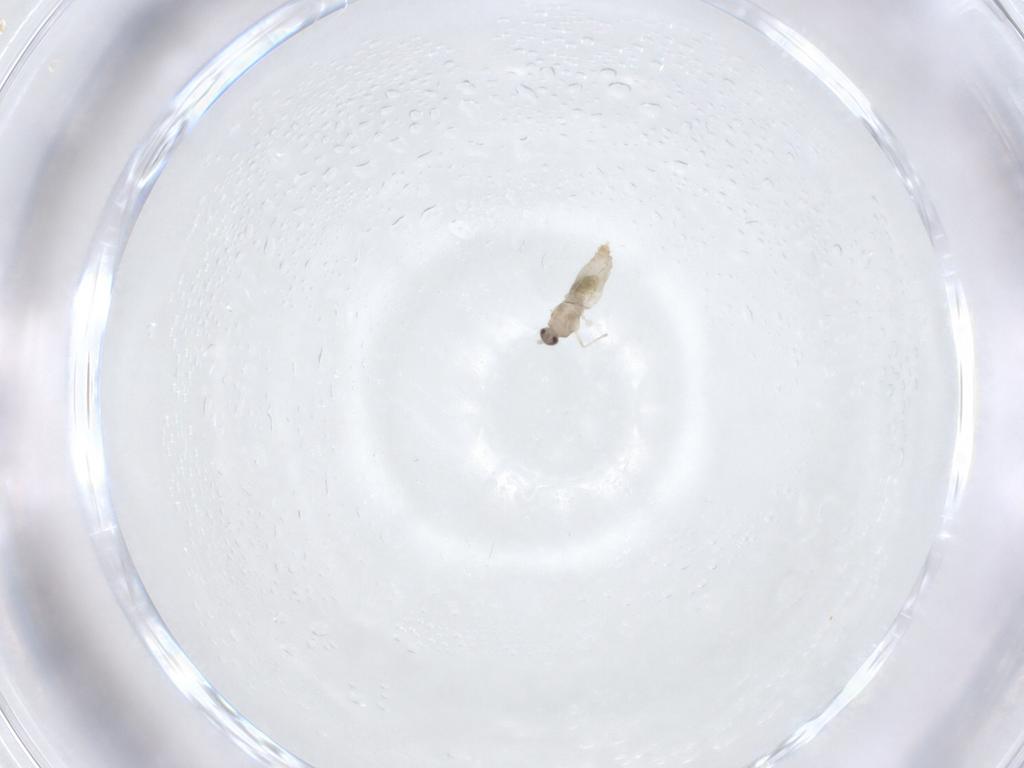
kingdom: Animalia
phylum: Arthropoda
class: Insecta
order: Diptera
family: Cecidomyiidae
